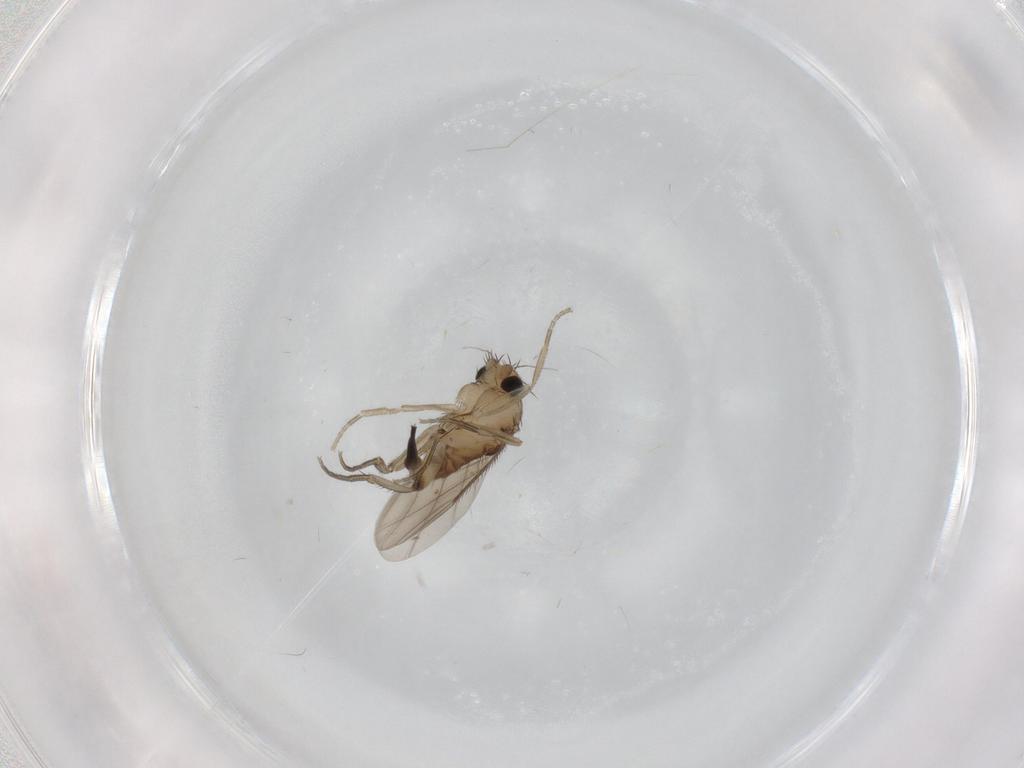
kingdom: Animalia
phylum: Arthropoda
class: Insecta
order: Diptera
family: Phoridae
